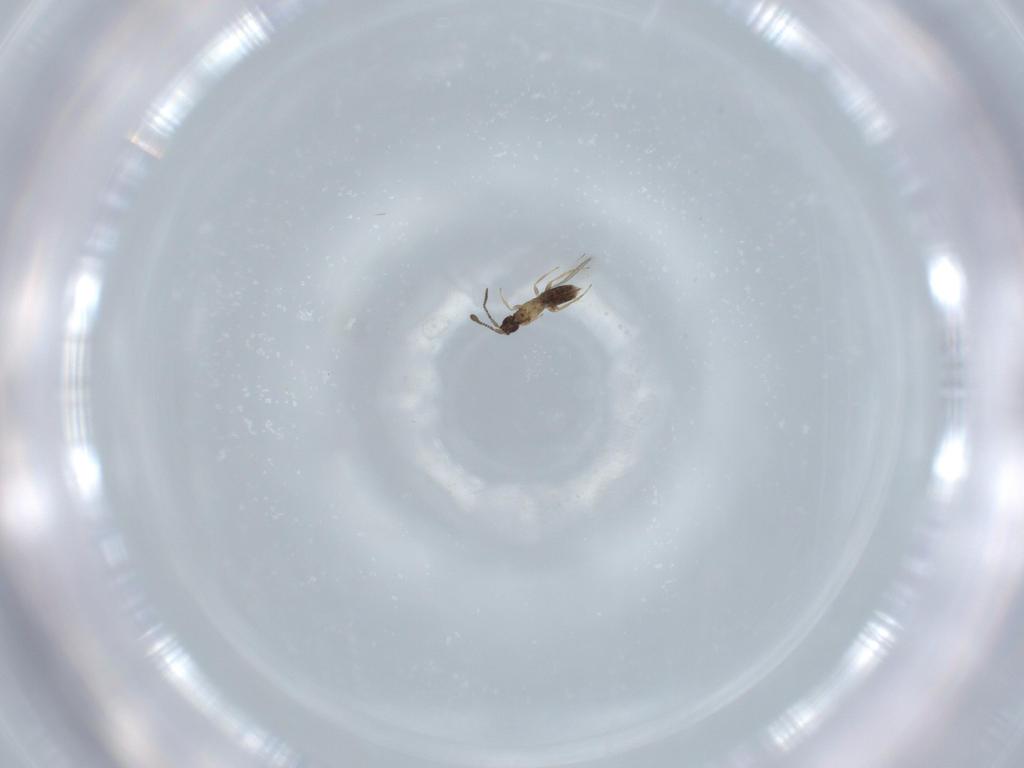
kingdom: Animalia
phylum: Arthropoda
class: Insecta
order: Hymenoptera
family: Mymaridae
